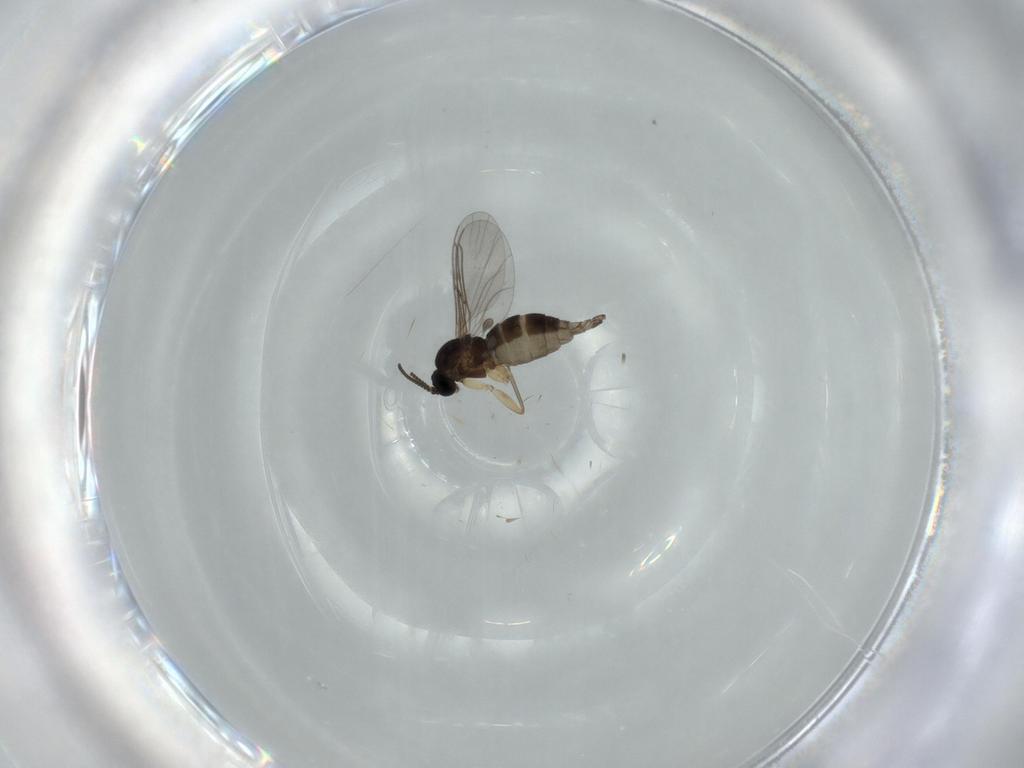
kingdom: Animalia
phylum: Arthropoda
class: Insecta
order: Diptera
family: Sciaridae
